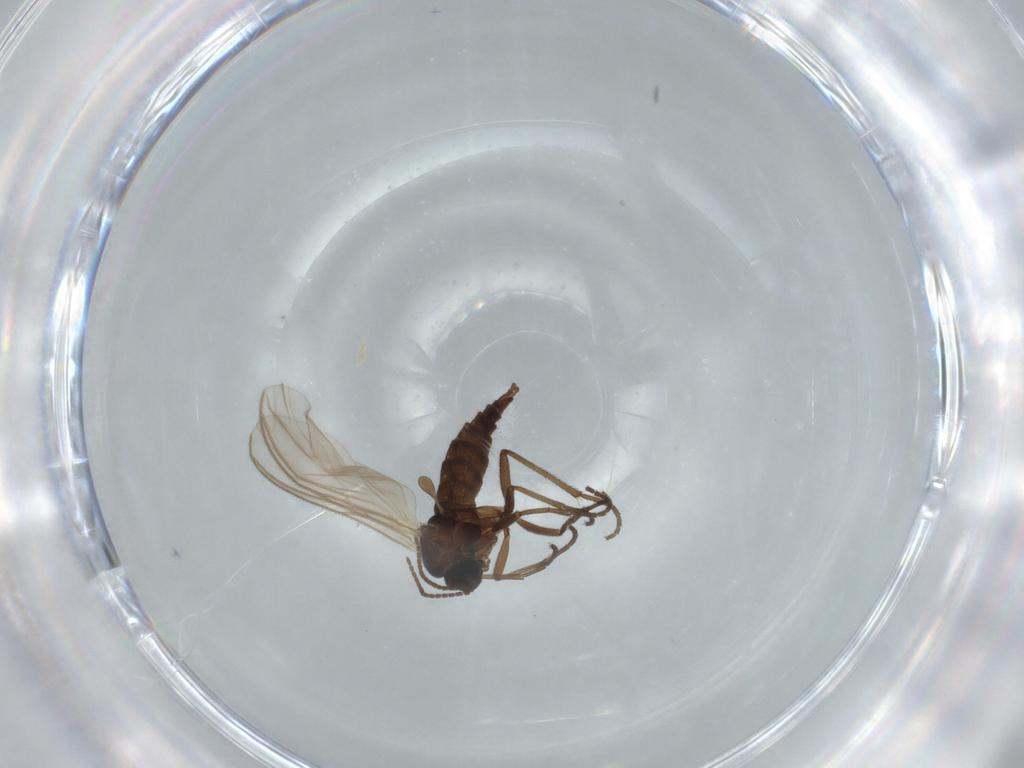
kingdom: Animalia
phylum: Arthropoda
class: Insecta
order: Diptera
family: Sciaridae
